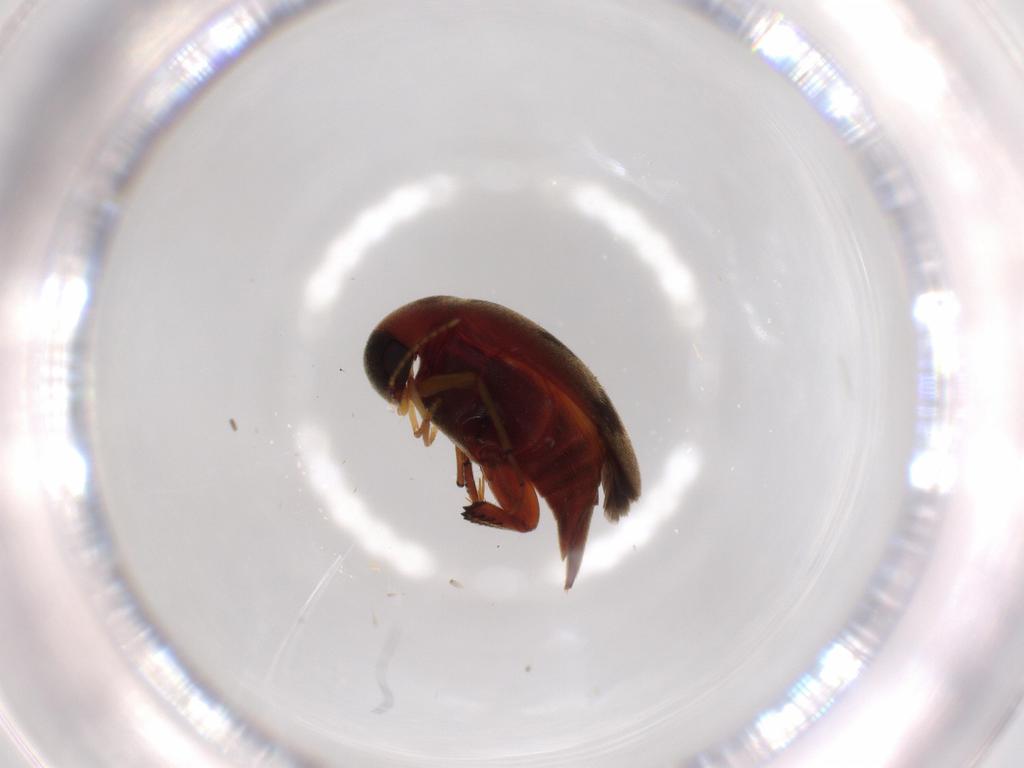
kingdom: Animalia
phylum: Arthropoda
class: Insecta
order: Coleoptera
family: Mordellidae
